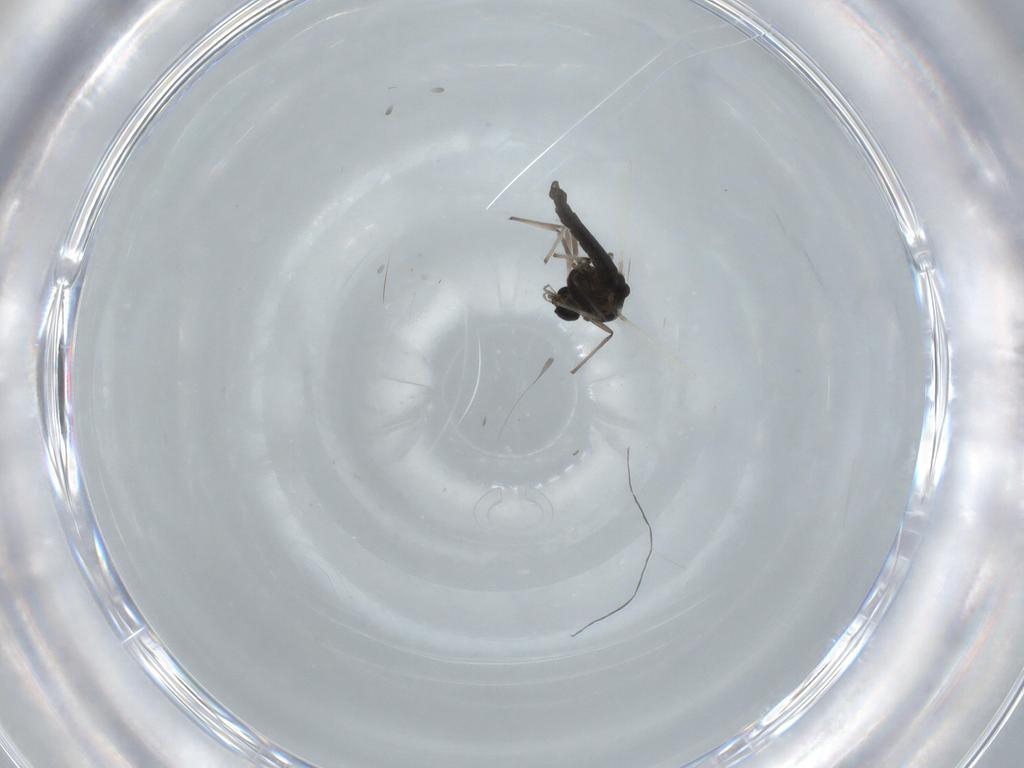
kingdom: Animalia
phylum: Arthropoda
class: Insecta
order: Diptera
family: Chironomidae
